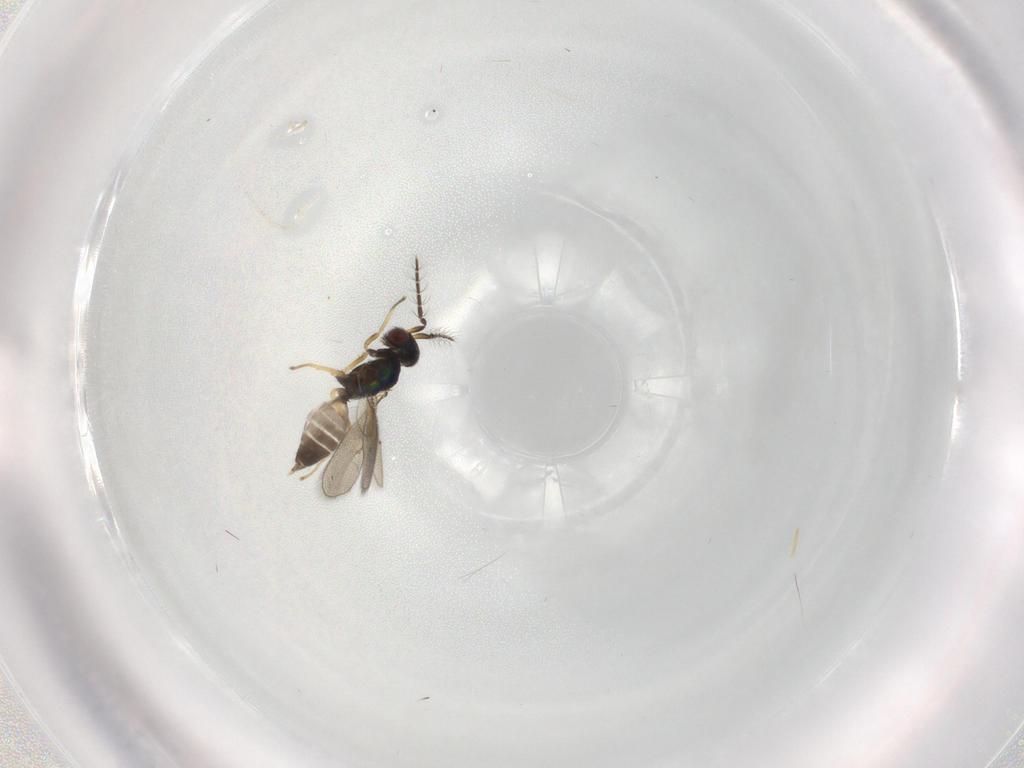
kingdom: Animalia
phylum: Arthropoda
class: Insecta
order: Hymenoptera
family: Eulophidae
